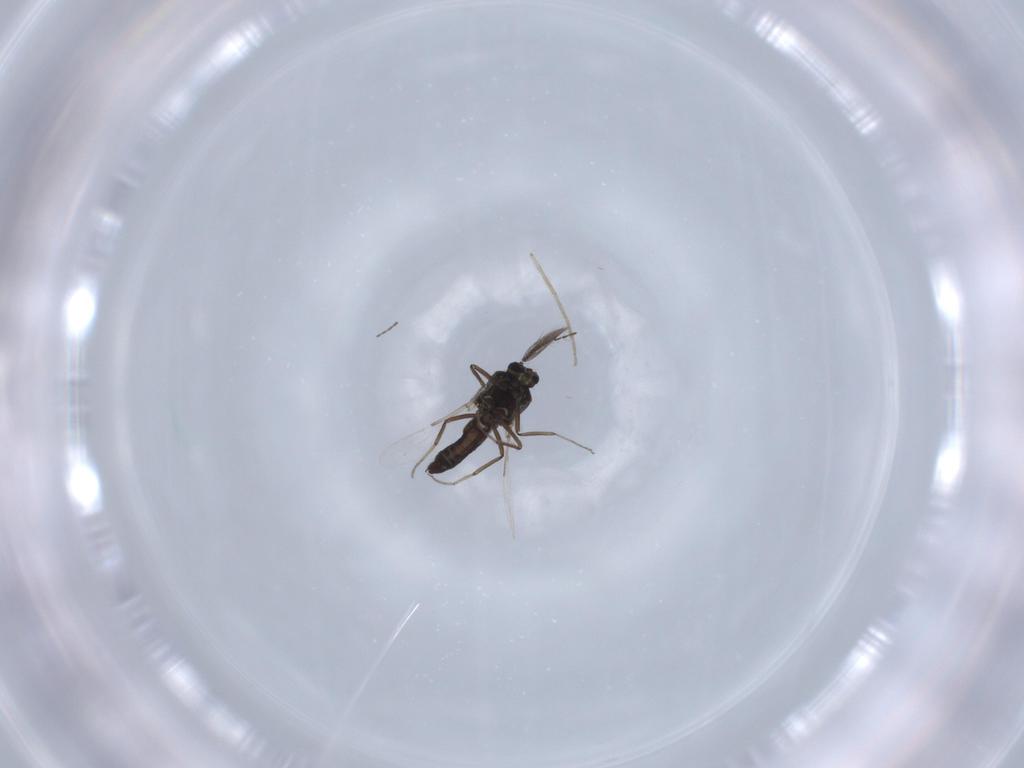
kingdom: Animalia
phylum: Arthropoda
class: Insecta
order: Diptera
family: Ceratopogonidae
